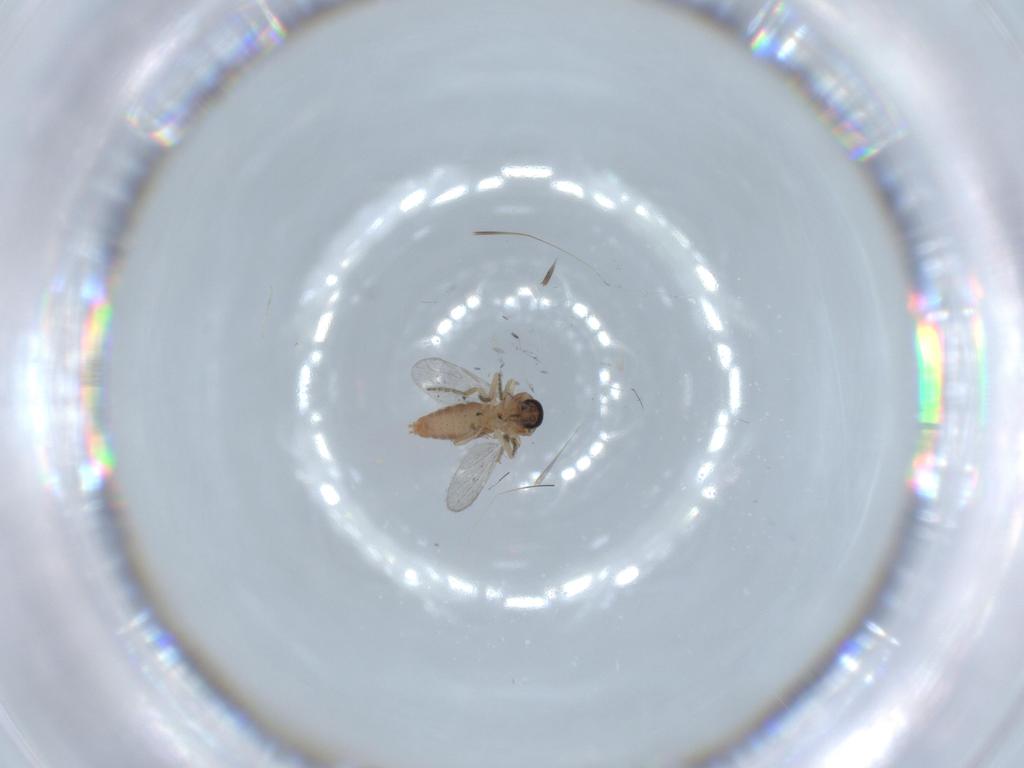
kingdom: Animalia
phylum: Arthropoda
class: Insecta
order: Diptera
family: Ceratopogonidae
